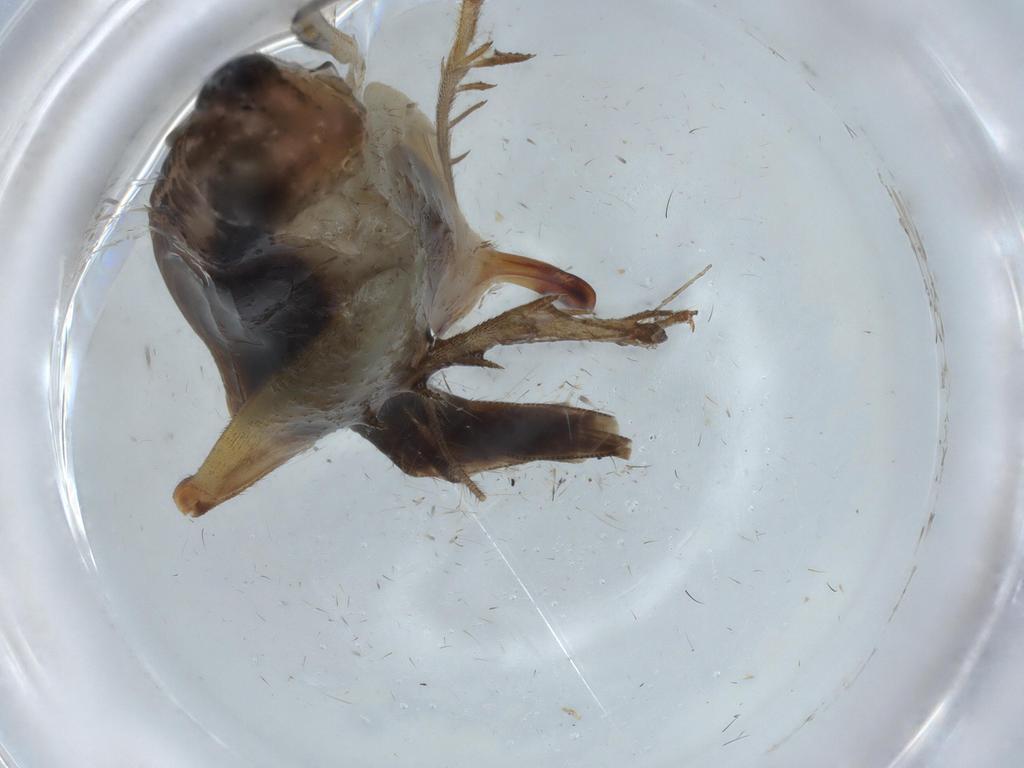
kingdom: Animalia
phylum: Arthropoda
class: Insecta
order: Orthoptera
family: Trigonidiidae
